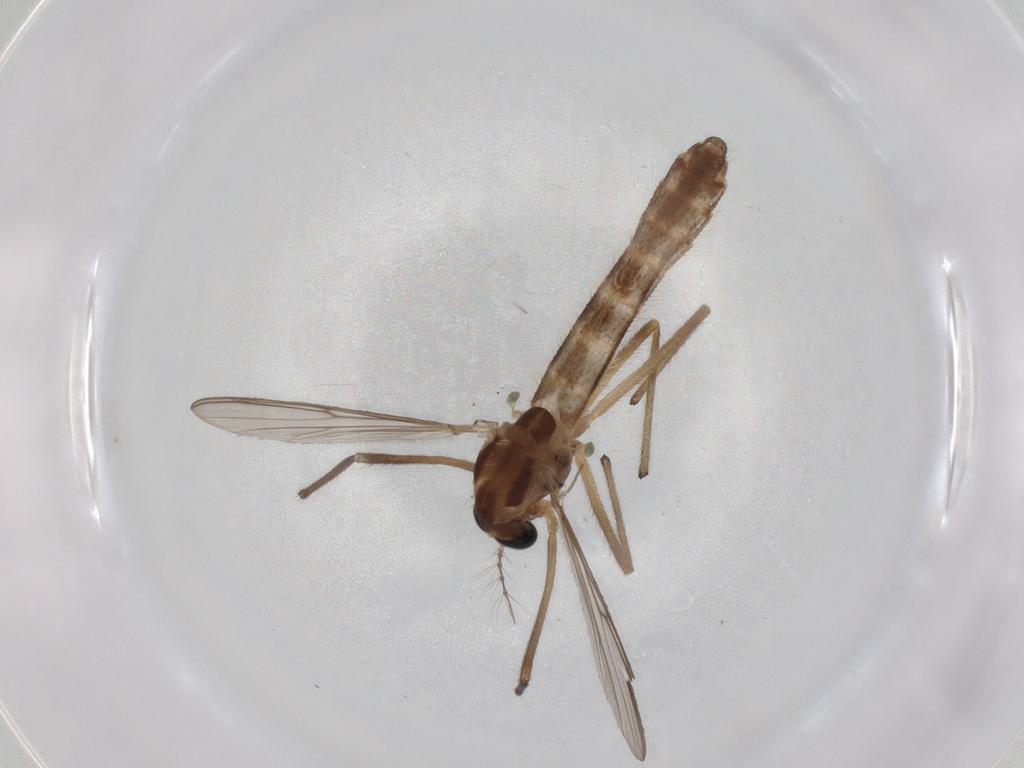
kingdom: Animalia
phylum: Arthropoda
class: Insecta
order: Diptera
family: Chironomidae
